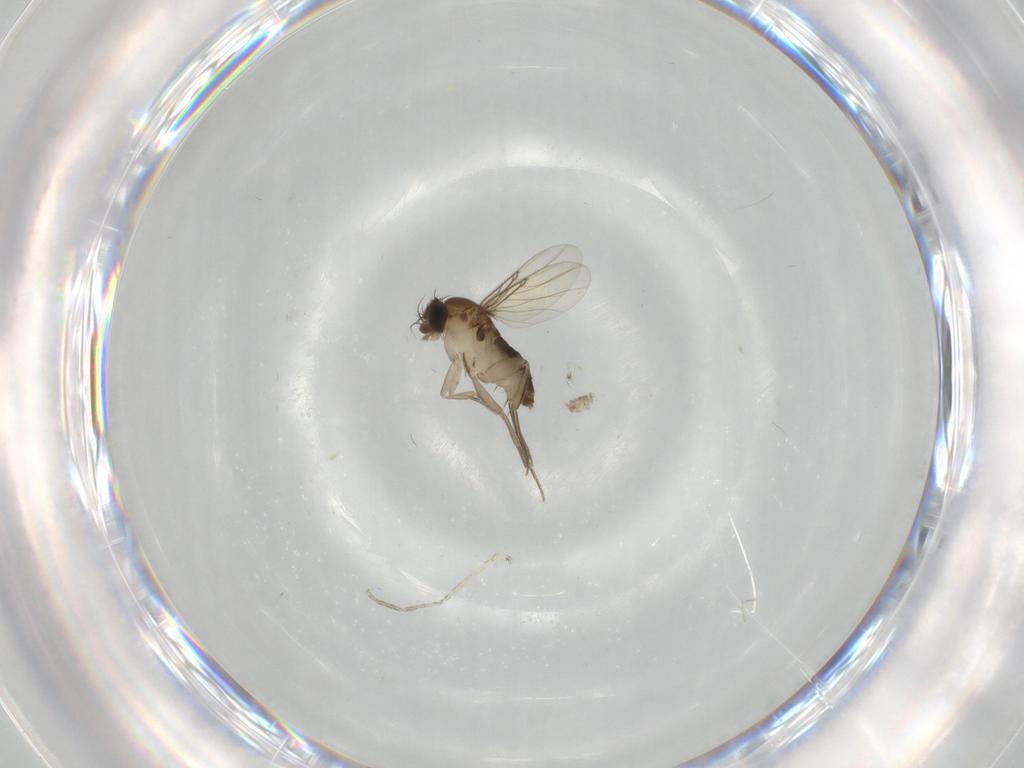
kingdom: Animalia
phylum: Arthropoda
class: Insecta
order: Diptera
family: Phoridae
